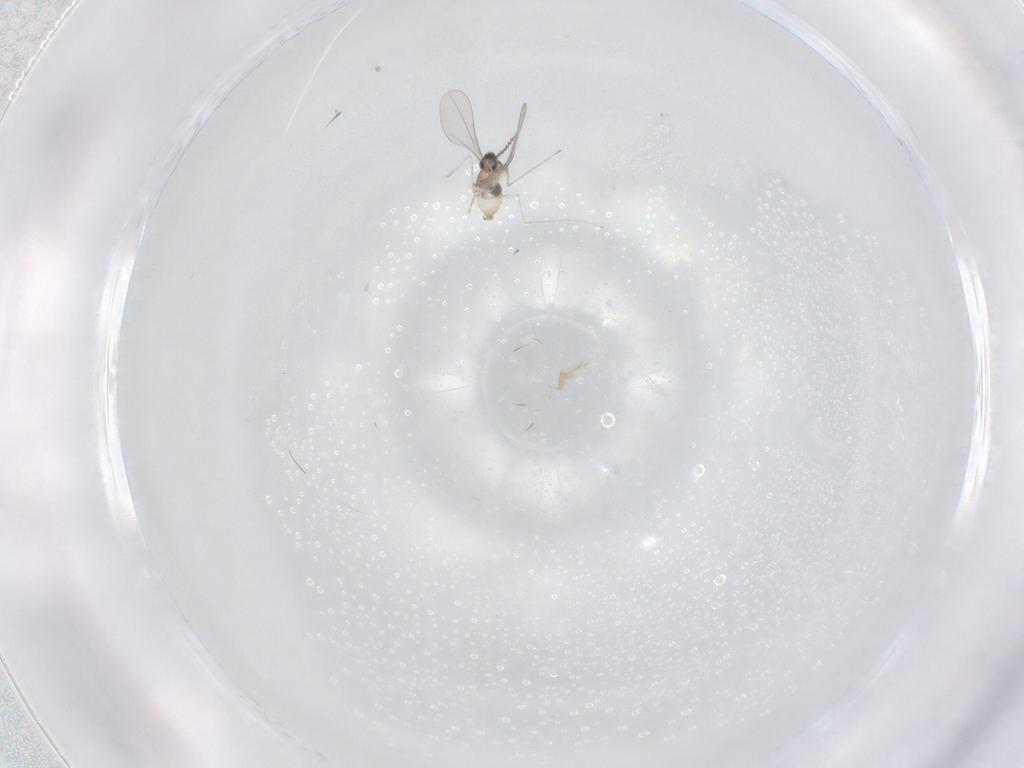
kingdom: Animalia
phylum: Arthropoda
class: Insecta
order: Diptera
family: Cecidomyiidae
